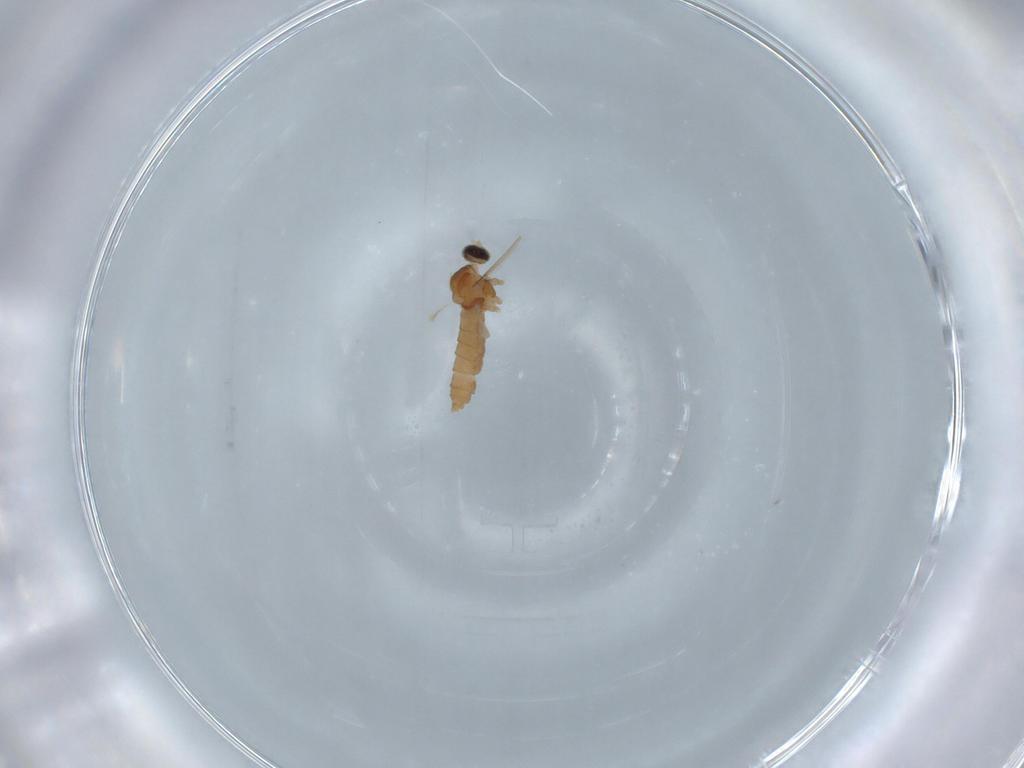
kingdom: Animalia
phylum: Arthropoda
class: Insecta
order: Diptera
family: Cecidomyiidae
